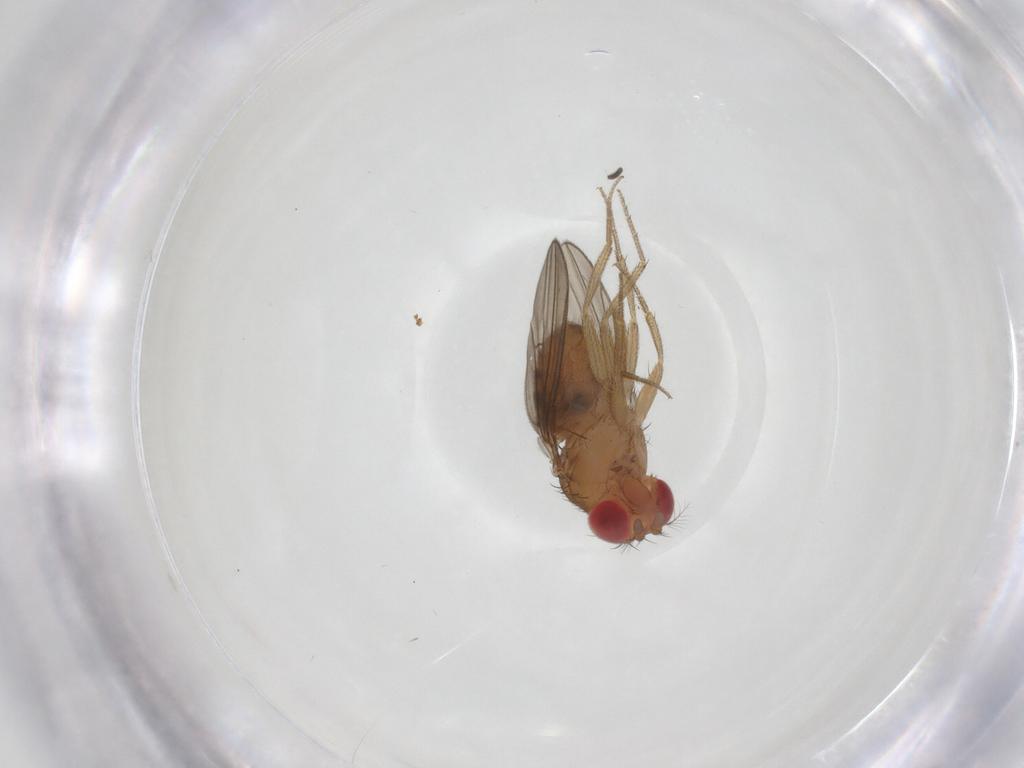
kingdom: Animalia
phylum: Arthropoda
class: Insecta
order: Diptera
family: Drosophilidae
